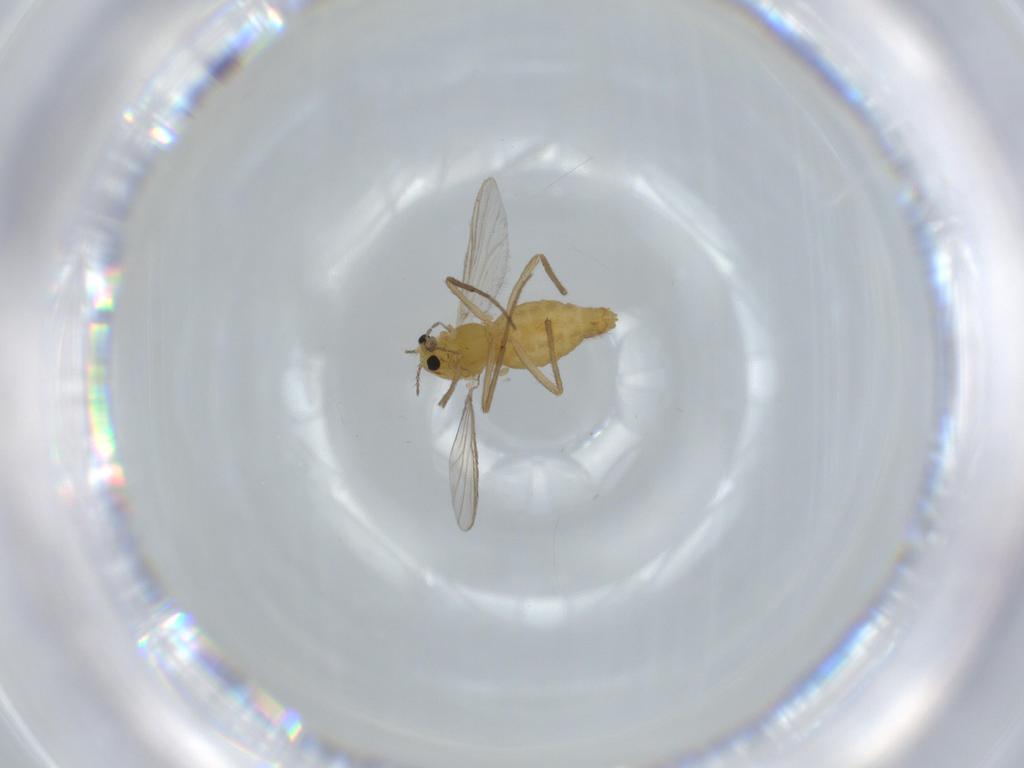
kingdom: Animalia
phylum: Arthropoda
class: Insecta
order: Diptera
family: Chironomidae
